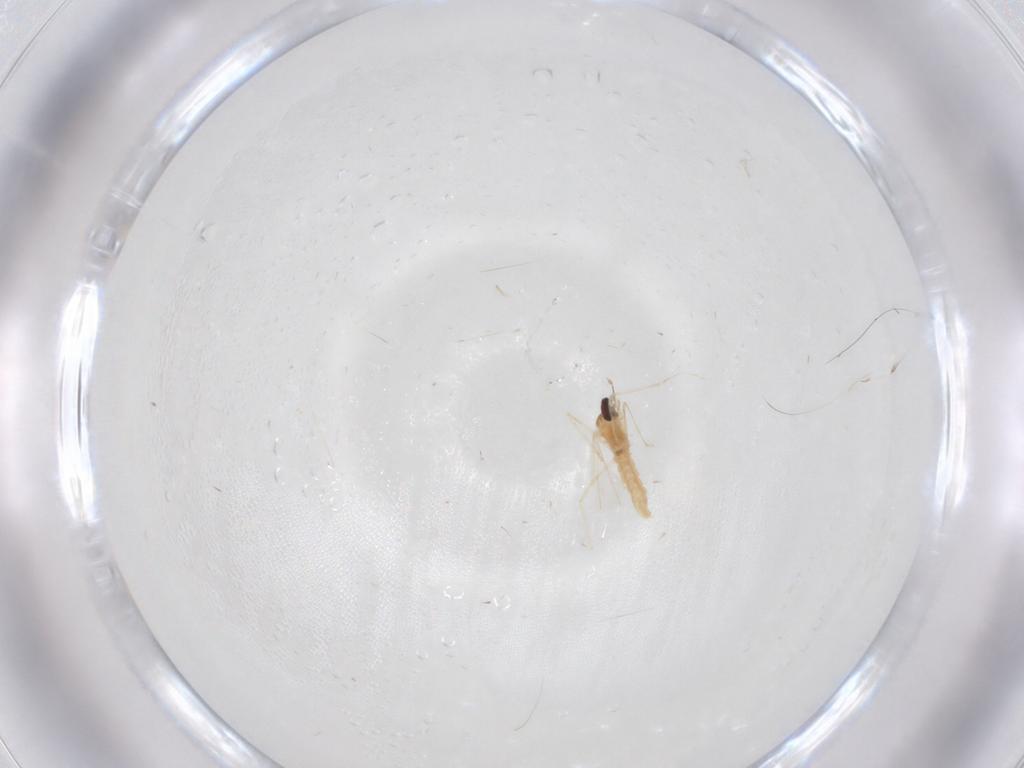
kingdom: Animalia
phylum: Arthropoda
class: Insecta
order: Diptera
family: Cecidomyiidae
